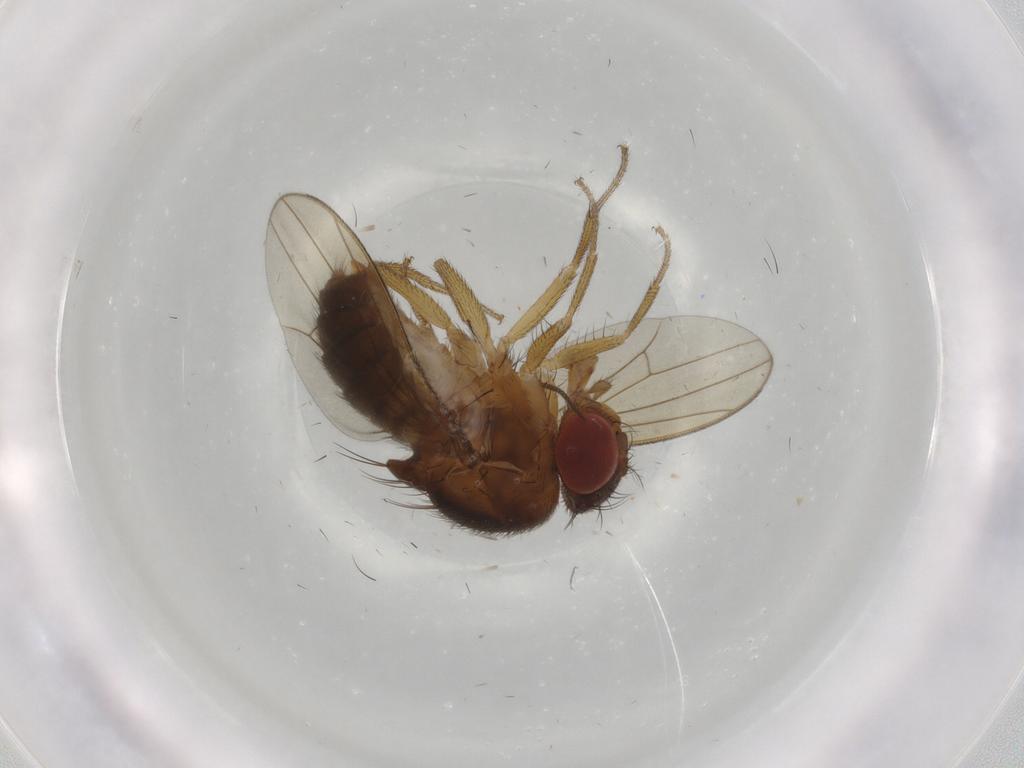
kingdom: Animalia
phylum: Arthropoda
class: Insecta
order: Diptera
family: Drosophilidae
